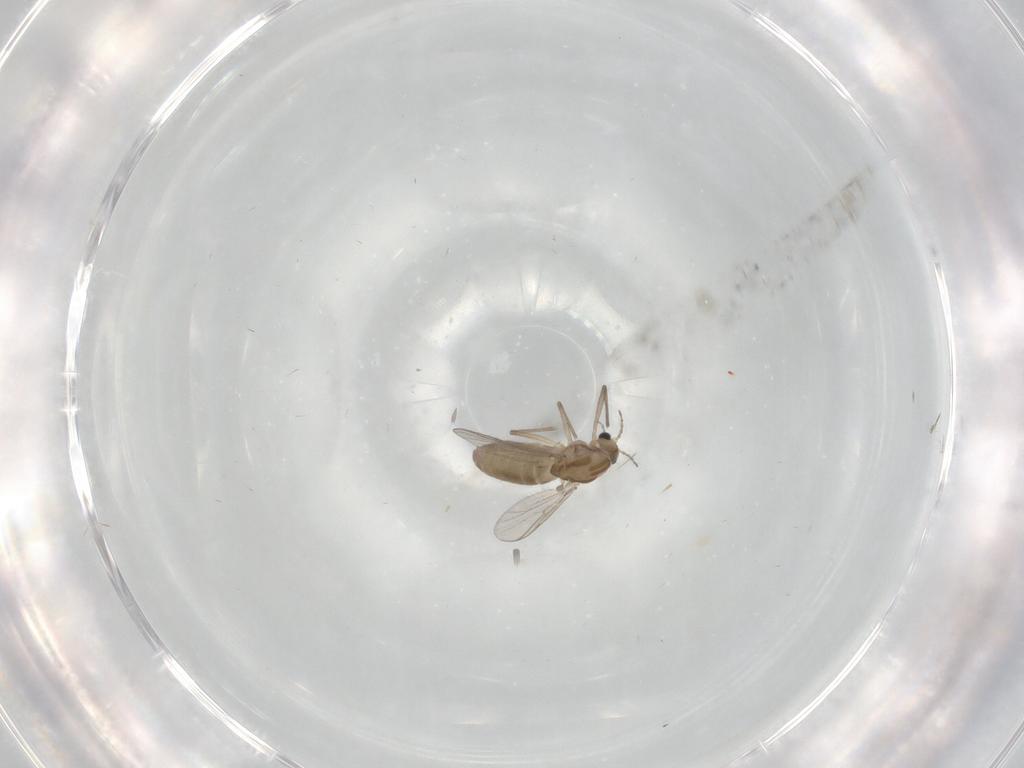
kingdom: Animalia
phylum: Arthropoda
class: Insecta
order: Diptera
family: Chironomidae
